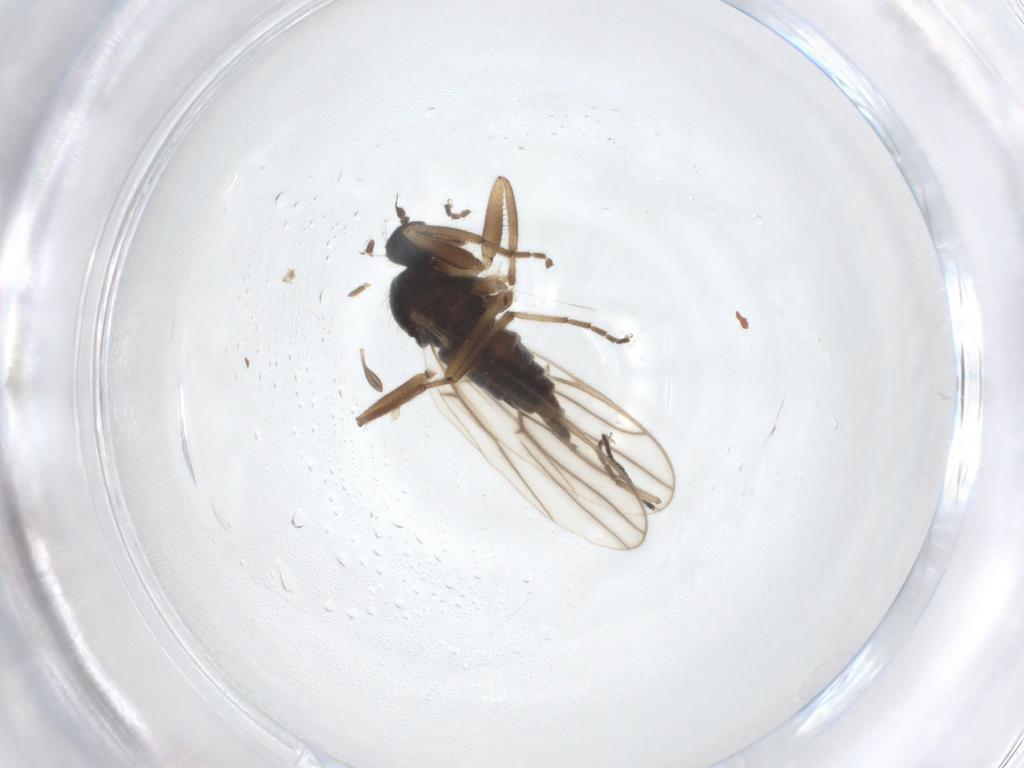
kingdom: Animalia
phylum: Arthropoda
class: Insecta
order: Diptera
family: Hybotidae
